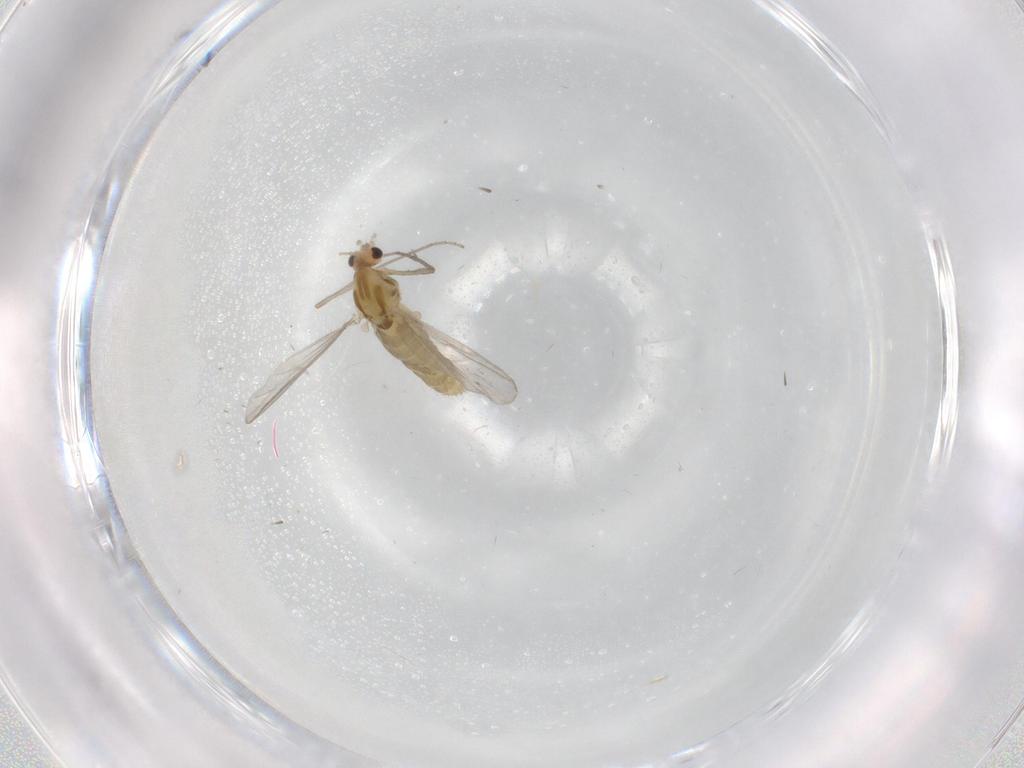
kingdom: Animalia
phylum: Arthropoda
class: Insecta
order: Diptera
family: Chironomidae
